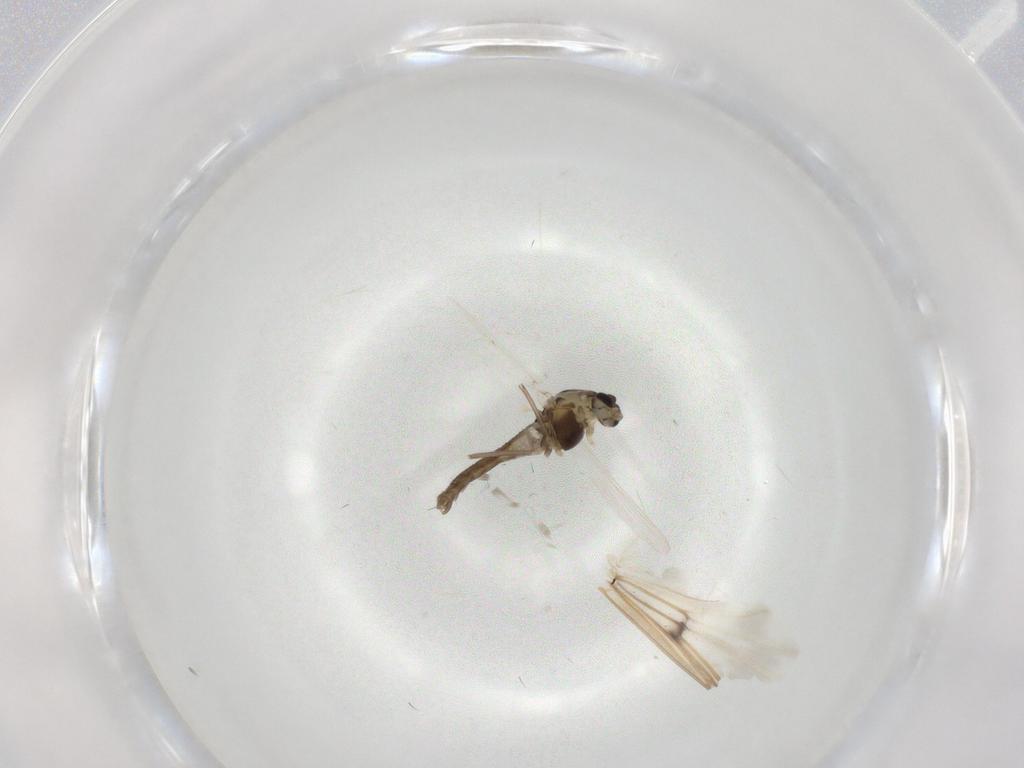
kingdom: Animalia
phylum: Arthropoda
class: Insecta
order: Diptera
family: Chironomidae
